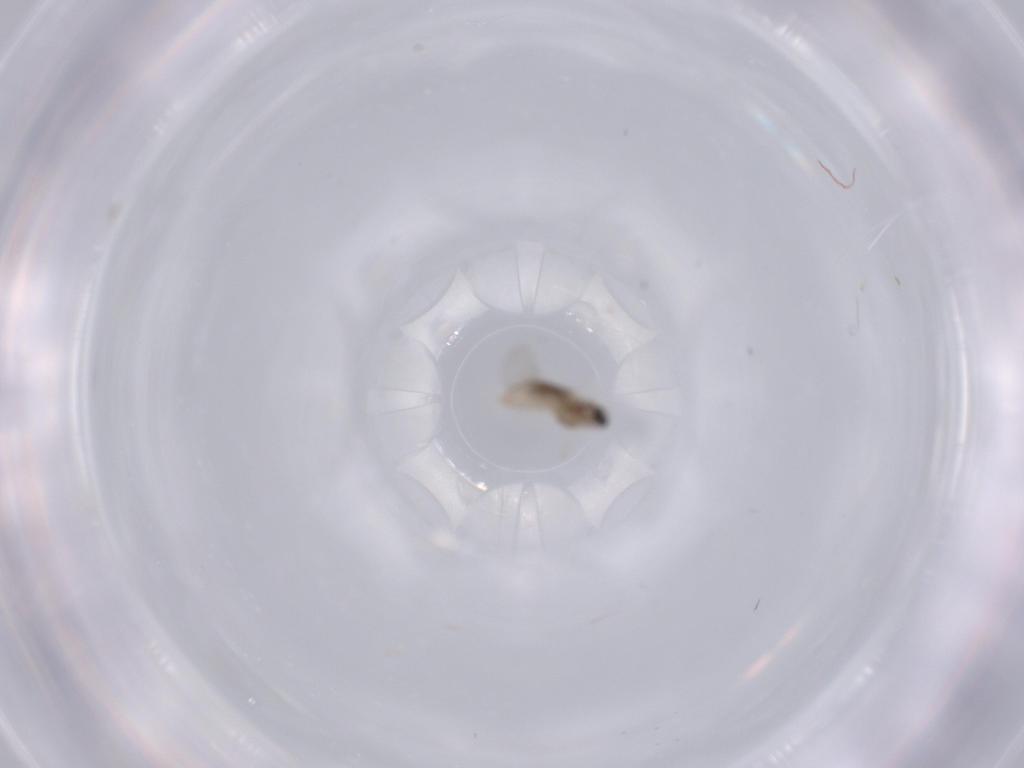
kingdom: Animalia
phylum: Arthropoda
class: Insecta
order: Diptera
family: Cecidomyiidae
